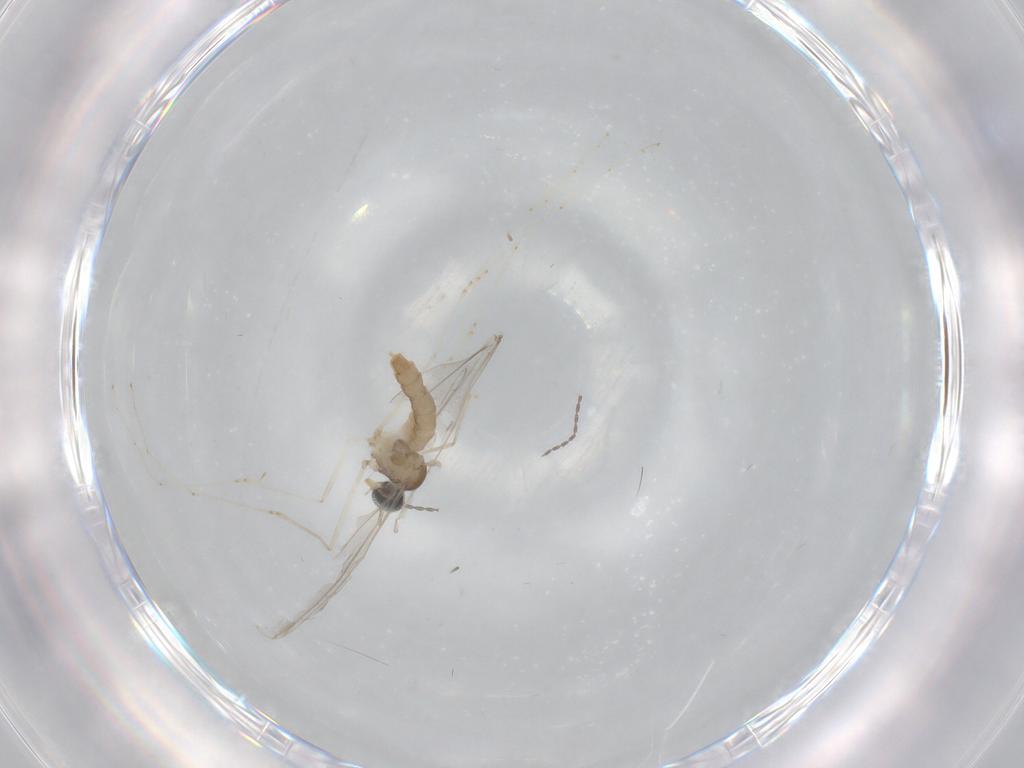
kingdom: Animalia
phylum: Arthropoda
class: Insecta
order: Diptera
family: Cecidomyiidae
